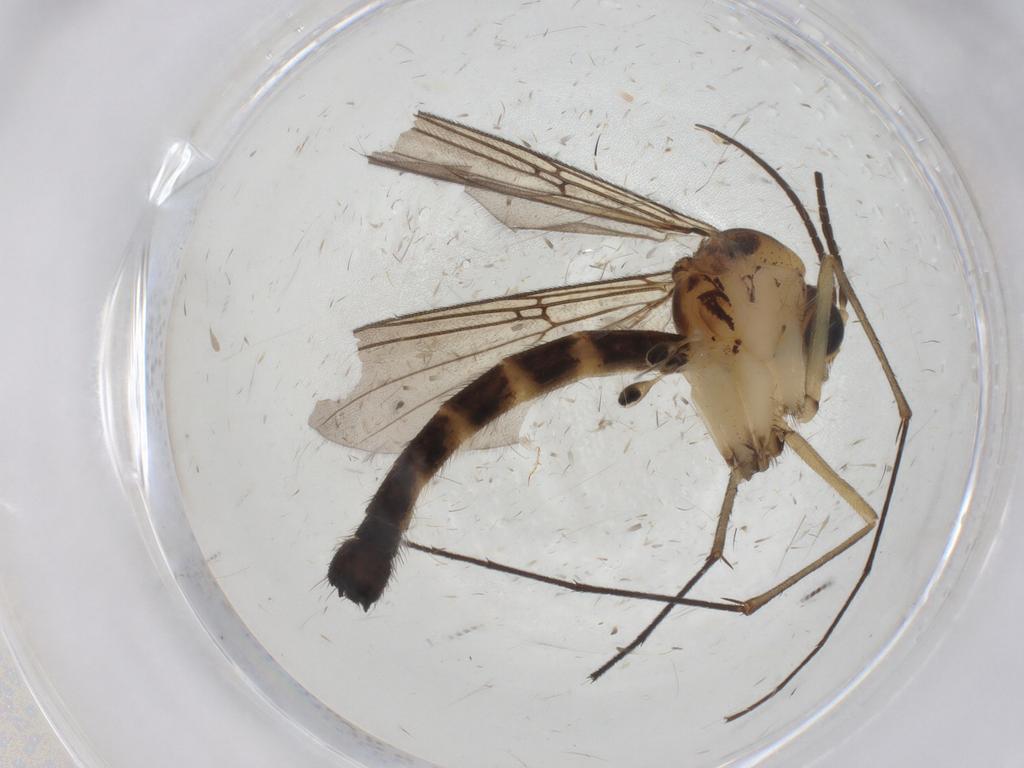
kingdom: Animalia
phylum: Arthropoda
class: Insecta
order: Diptera
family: Mycetophilidae
